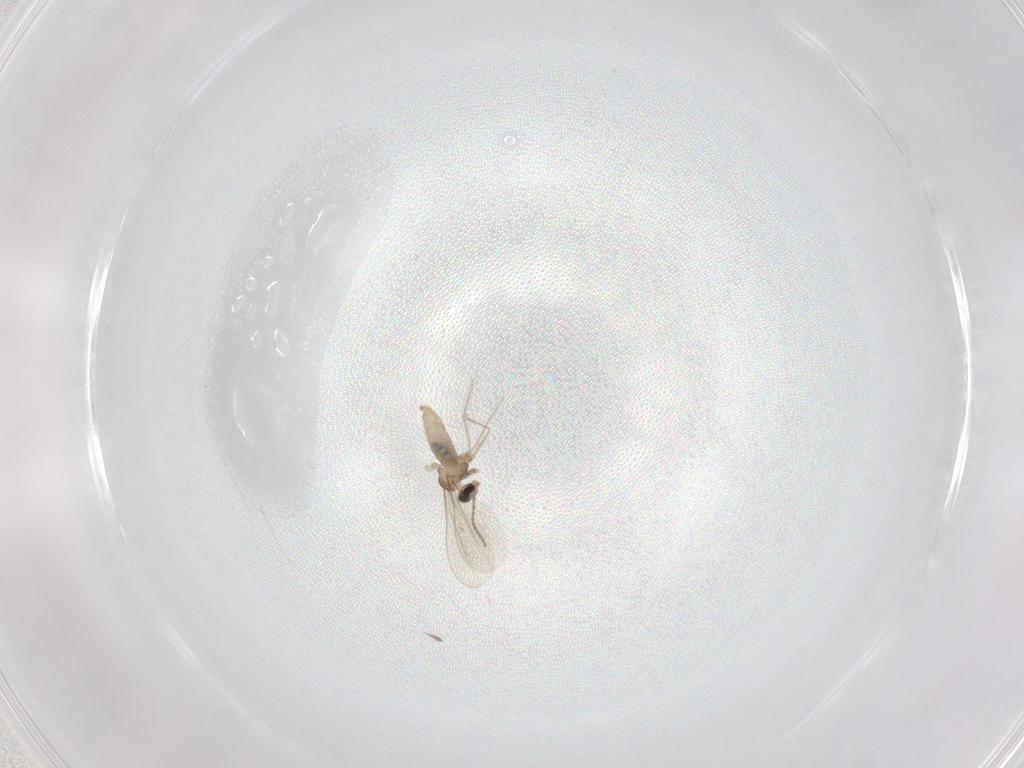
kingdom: Animalia
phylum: Arthropoda
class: Insecta
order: Diptera
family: Cecidomyiidae
